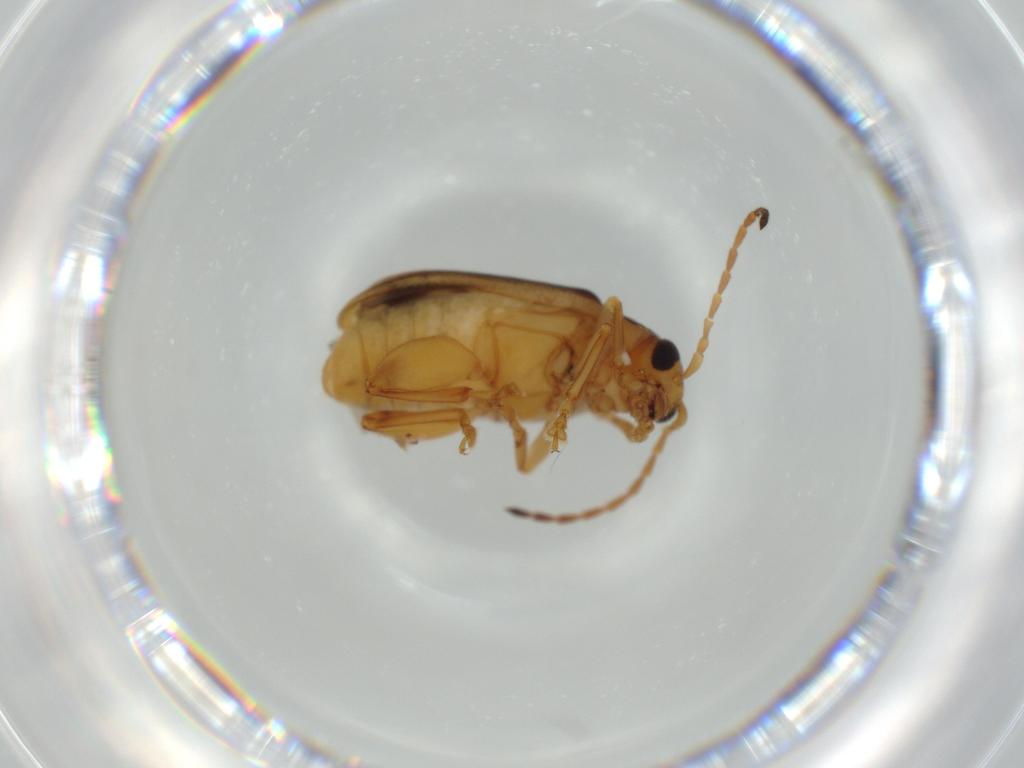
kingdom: Animalia
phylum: Arthropoda
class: Insecta
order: Coleoptera
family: Chrysomelidae
